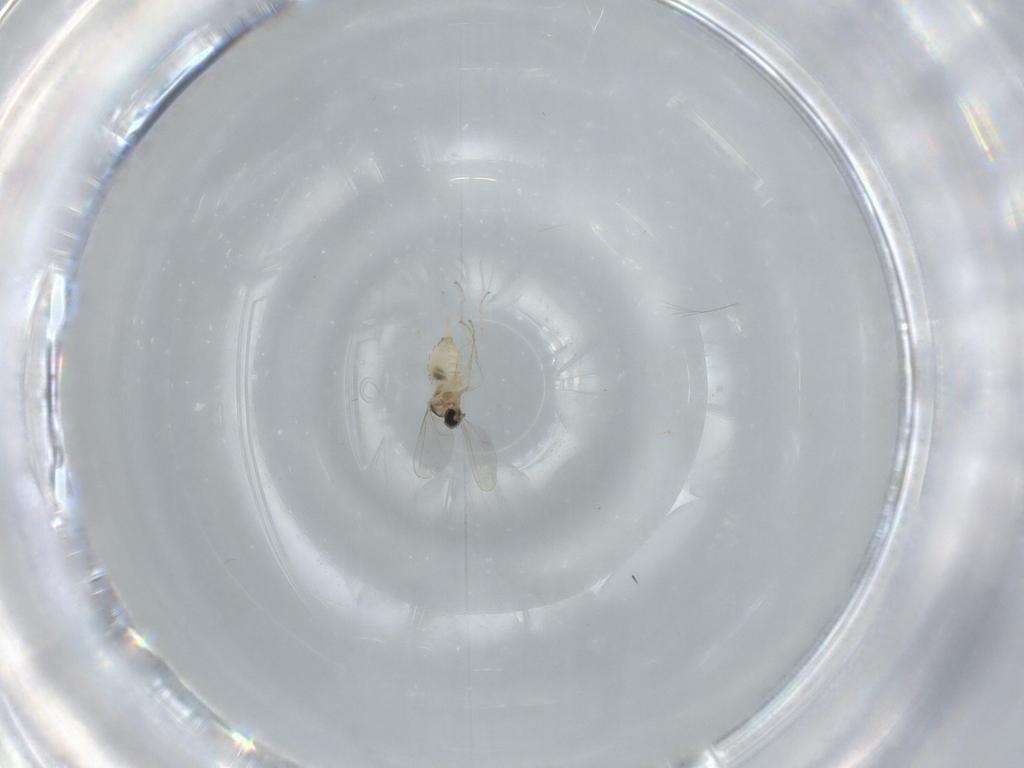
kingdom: Animalia
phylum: Arthropoda
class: Insecta
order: Diptera
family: Cecidomyiidae
